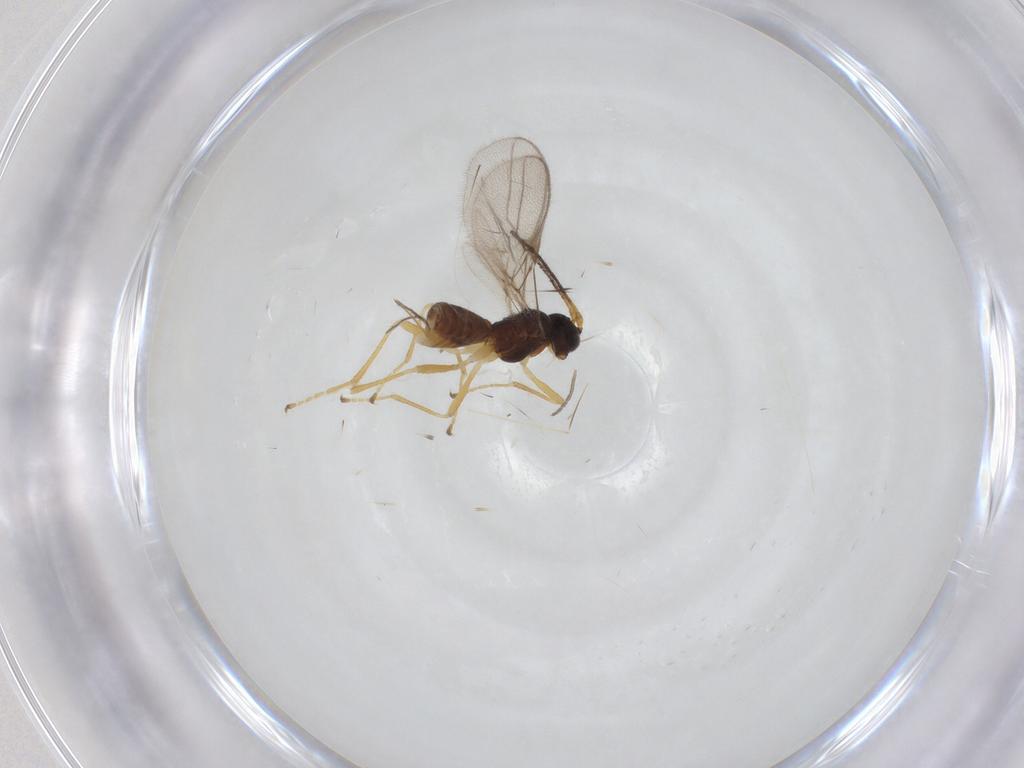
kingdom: Animalia
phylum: Arthropoda
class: Insecta
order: Hymenoptera
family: Braconidae
